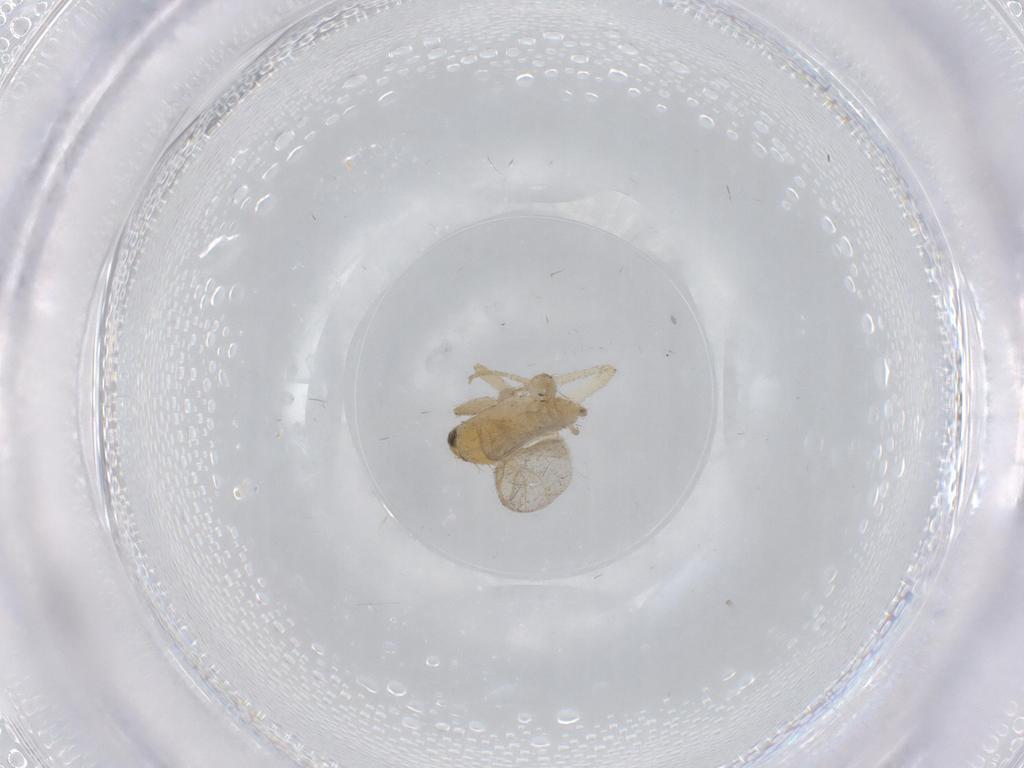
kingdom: Animalia
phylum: Arthropoda
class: Insecta
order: Diptera
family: Hybotidae
